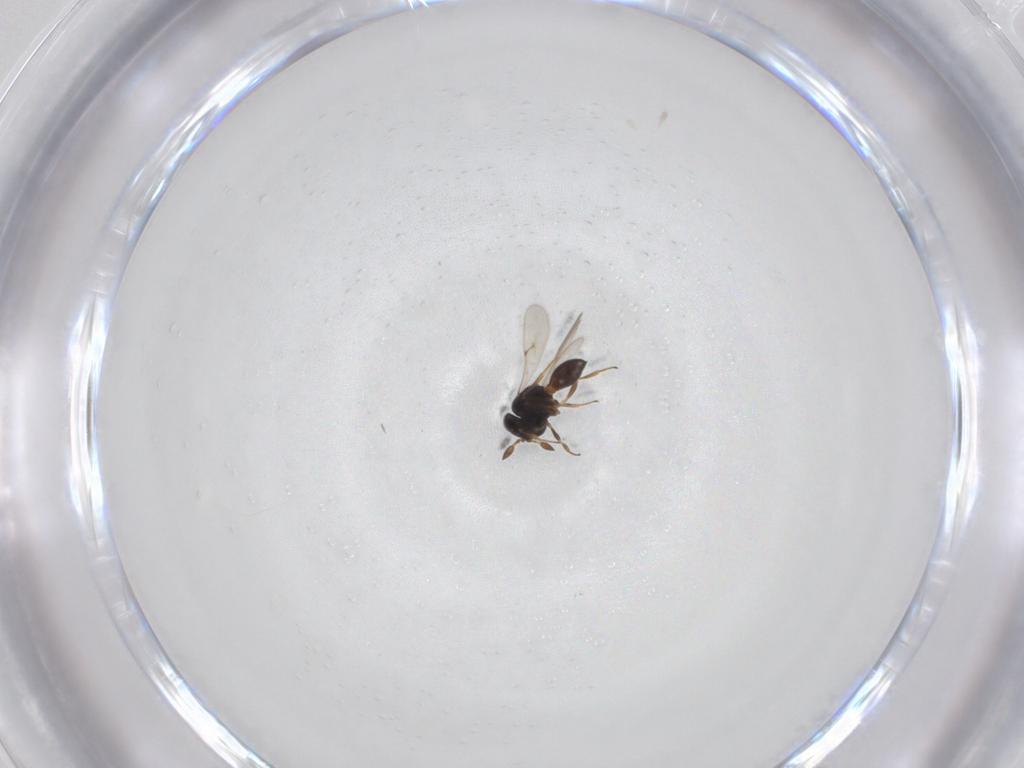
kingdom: Animalia
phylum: Arthropoda
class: Insecta
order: Hymenoptera
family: Scelionidae
